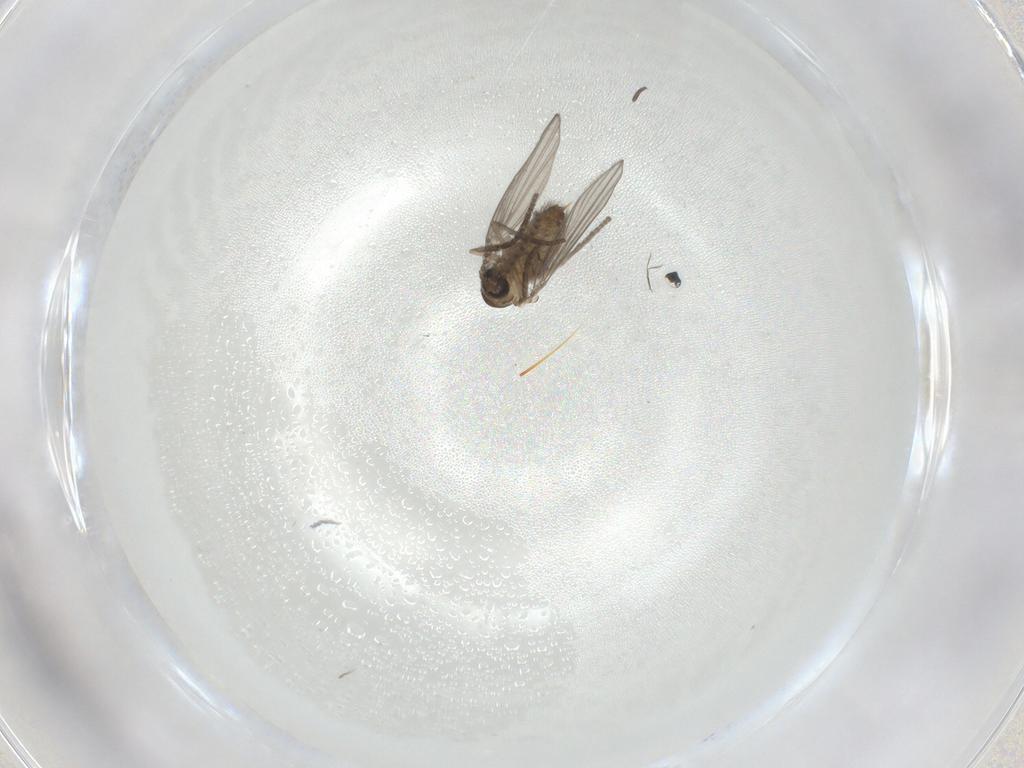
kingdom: Animalia
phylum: Arthropoda
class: Insecta
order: Diptera
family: Psychodidae
